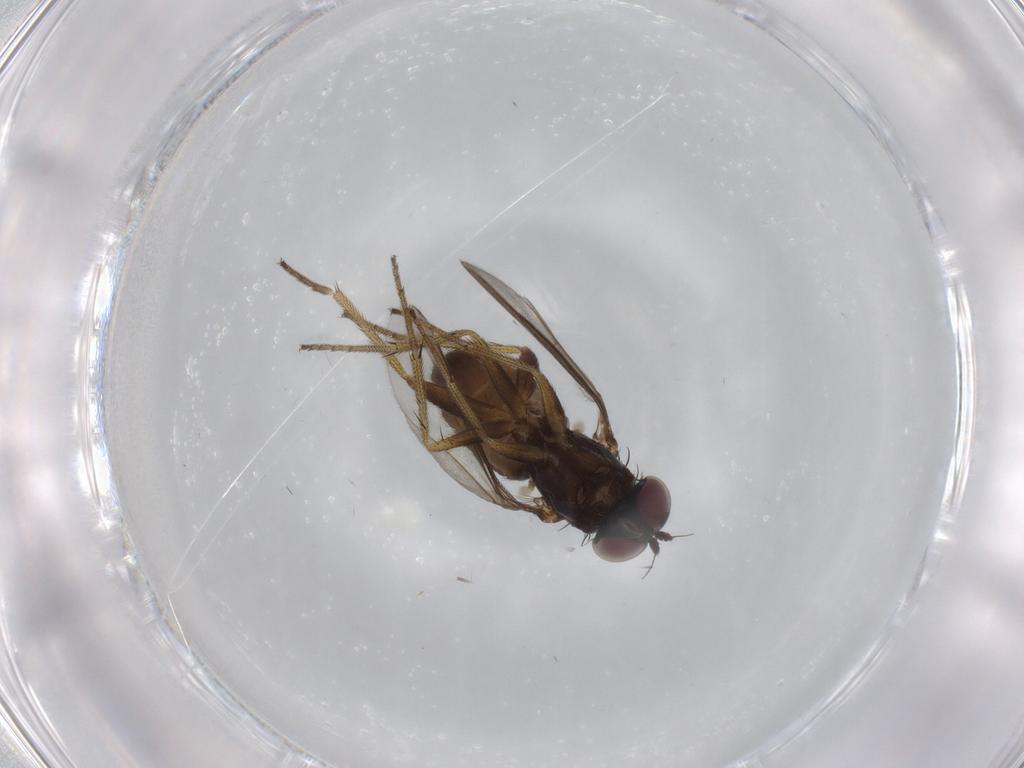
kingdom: Animalia
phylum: Arthropoda
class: Insecta
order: Diptera
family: Dolichopodidae
